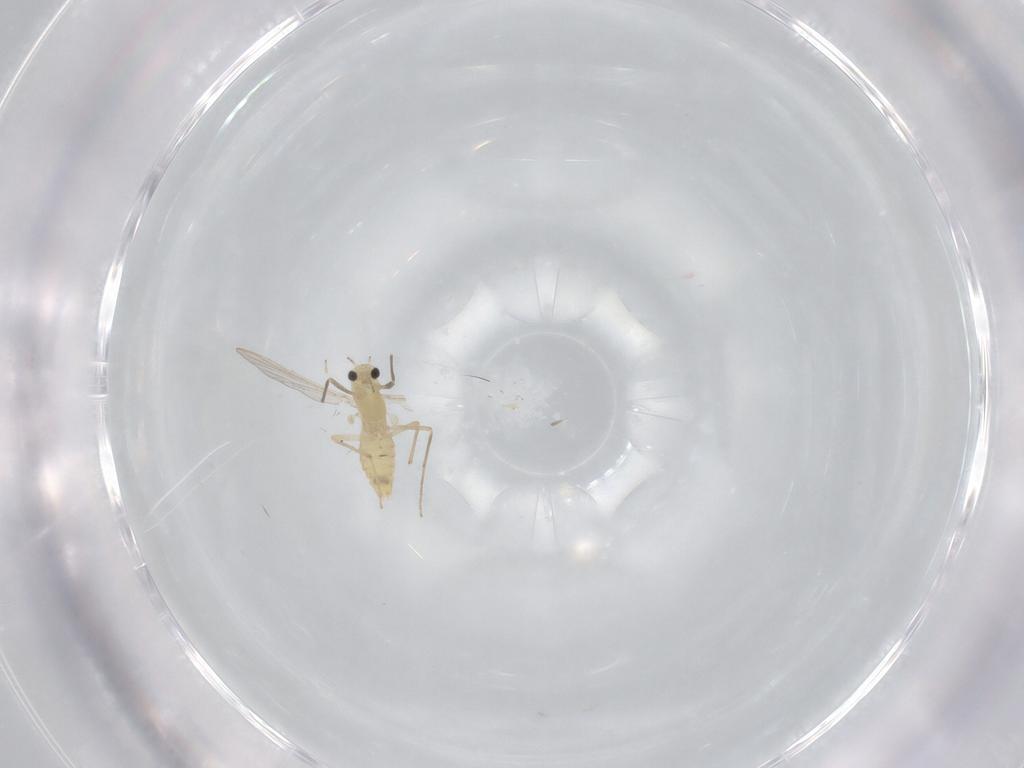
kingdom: Animalia
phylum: Arthropoda
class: Insecta
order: Diptera
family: Chironomidae
